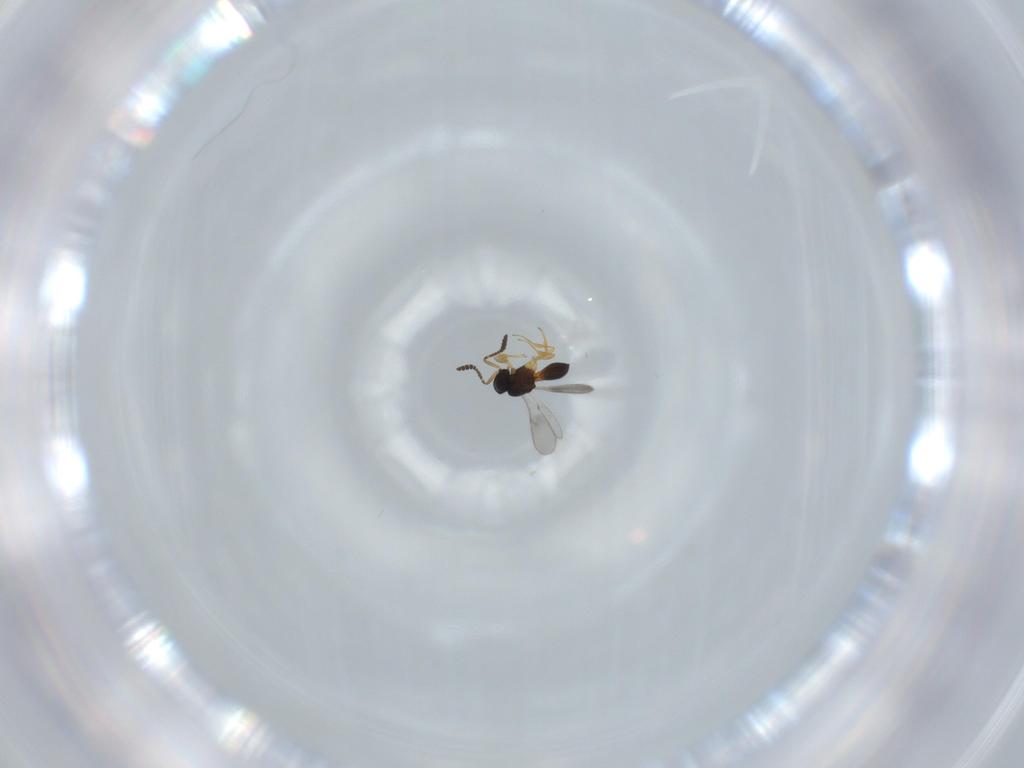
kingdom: Animalia
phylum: Arthropoda
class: Insecta
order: Hymenoptera
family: Scelionidae
